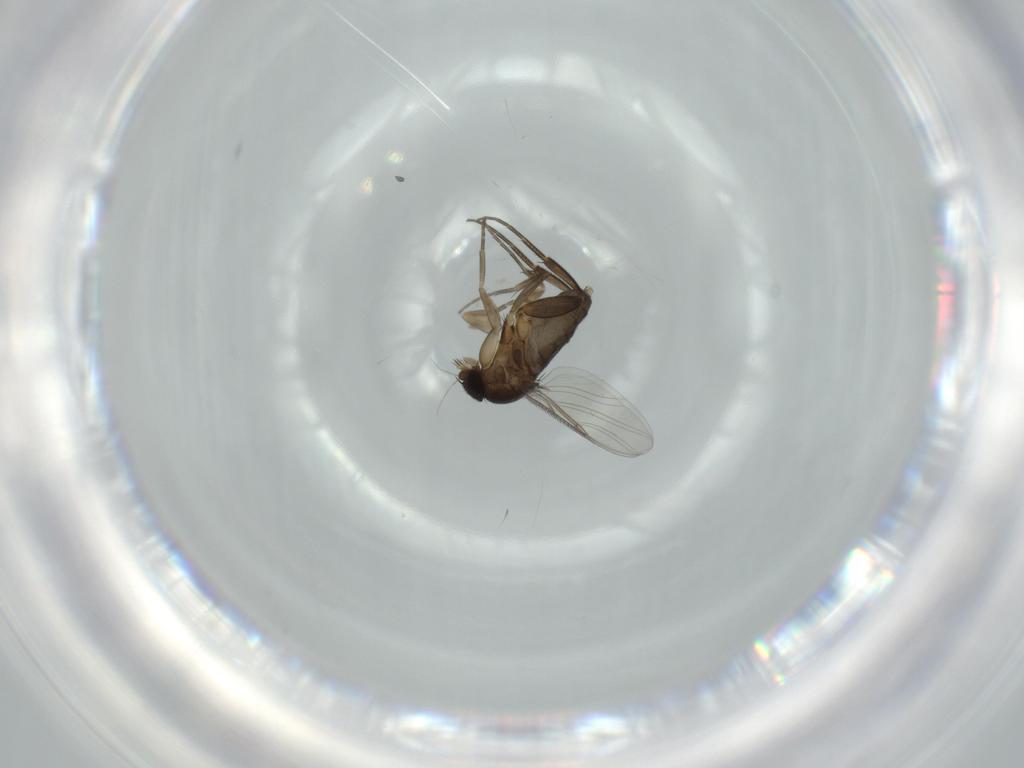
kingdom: Animalia
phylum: Arthropoda
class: Insecta
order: Diptera
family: Phoridae
